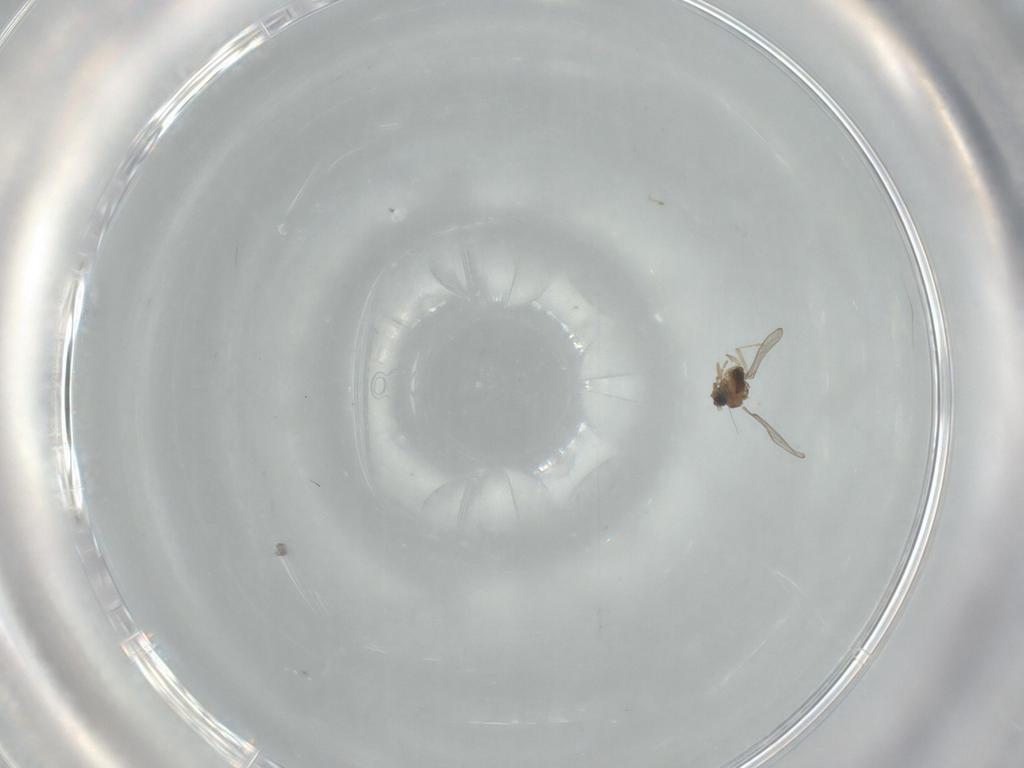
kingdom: Animalia
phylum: Arthropoda
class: Insecta
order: Diptera
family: Cecidomyiidae
